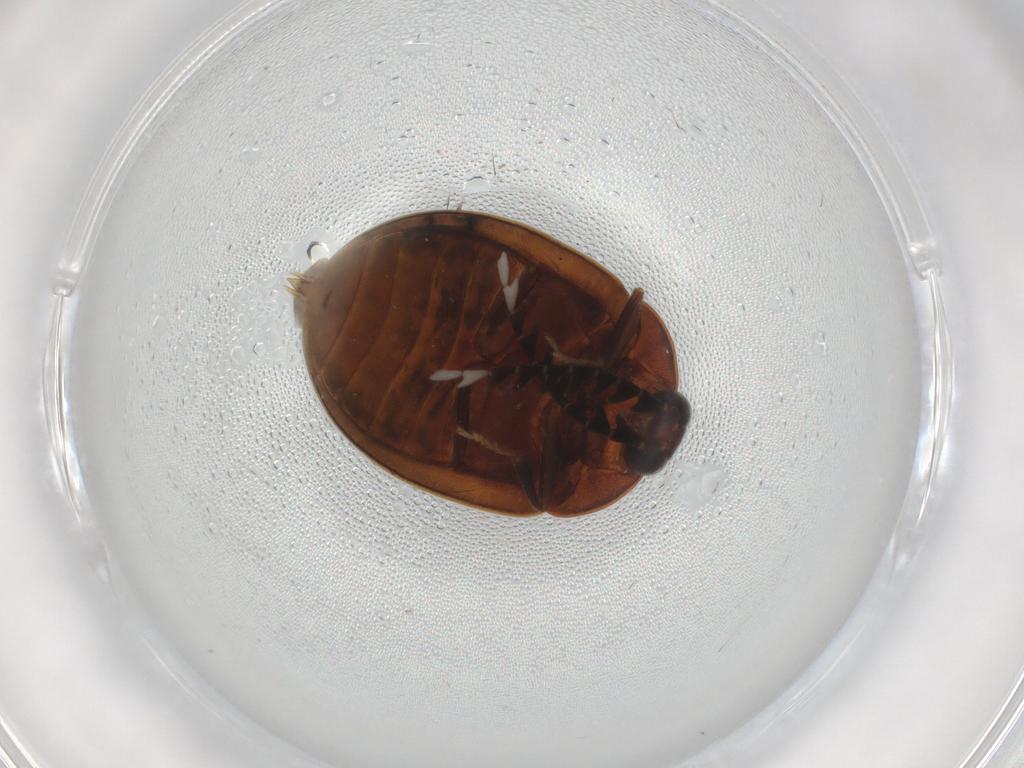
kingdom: Animalia
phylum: Arthropoda
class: Insecta
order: Coleoptera
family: Psephenidae
